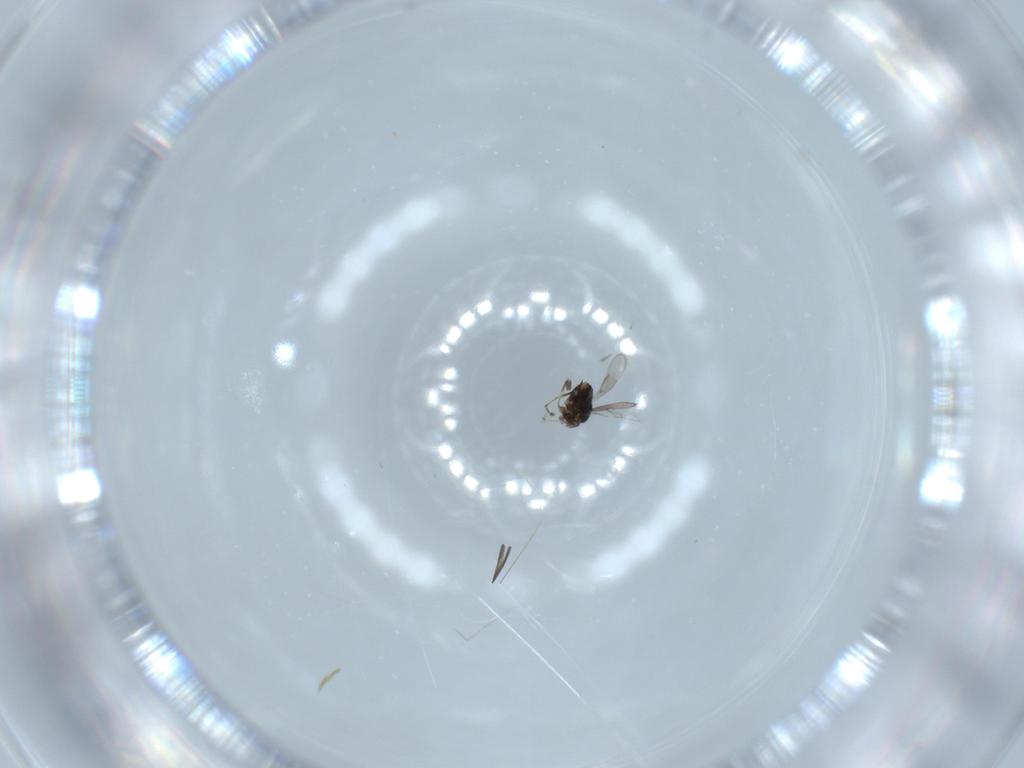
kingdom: Animalia
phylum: Arthropoda
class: Insecta
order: Hymenoptera
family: Azotidae
